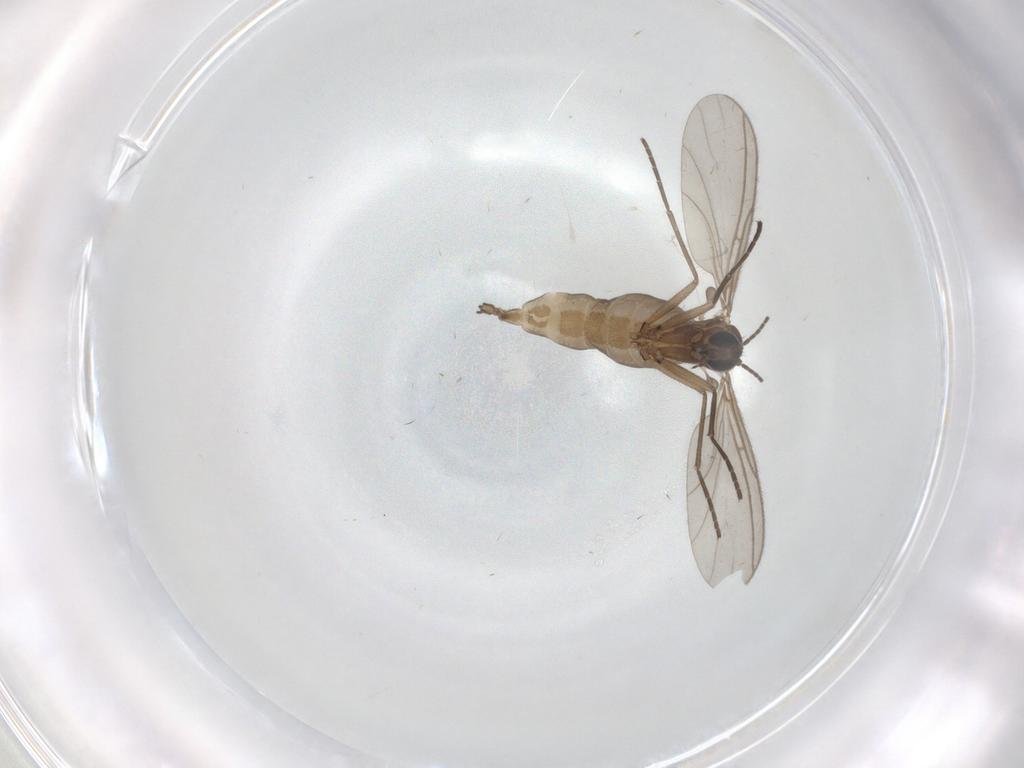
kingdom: Animalia
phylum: Arthropoda
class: Insecta
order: Diptera
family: Sciaridae
